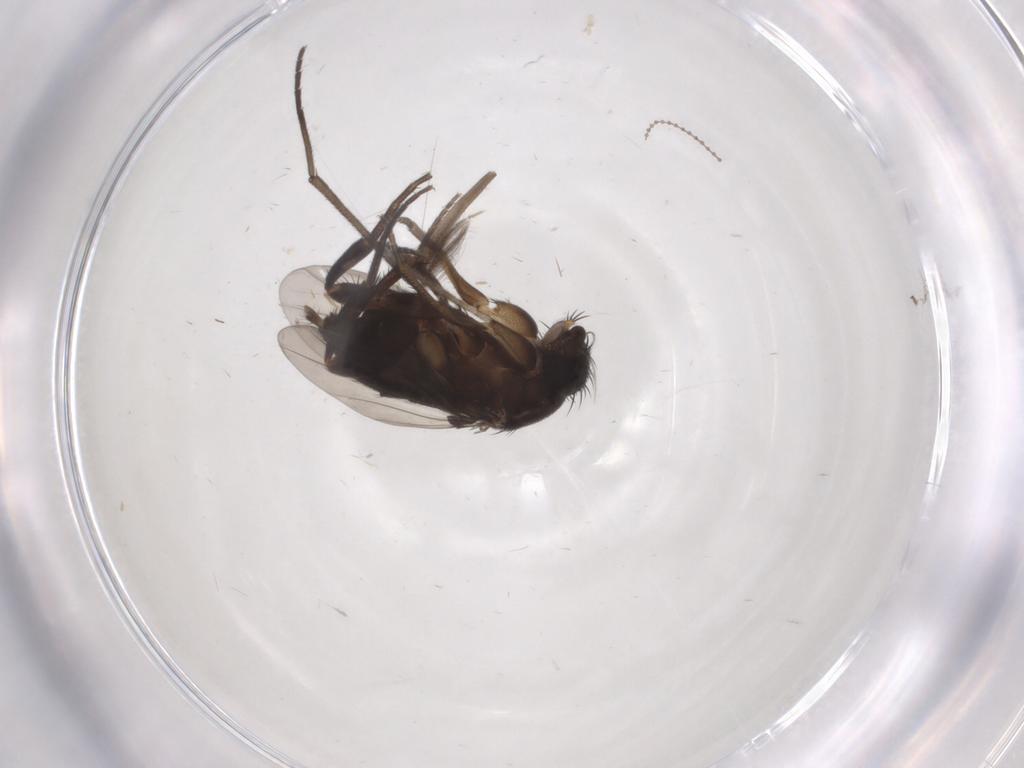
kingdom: Animalia
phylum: Arthropoda
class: Insecta
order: Diptera
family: Phoridae
